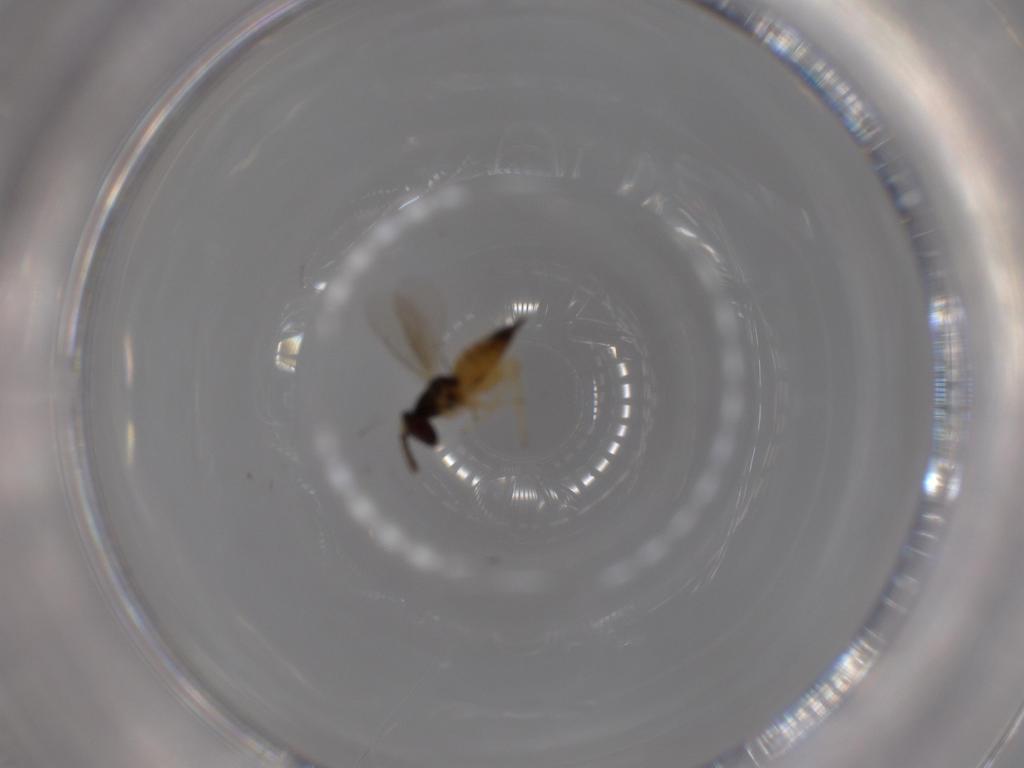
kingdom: Animalia
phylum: Arthropoda
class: Insecta
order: Hymenoptera
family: Eulophidae
